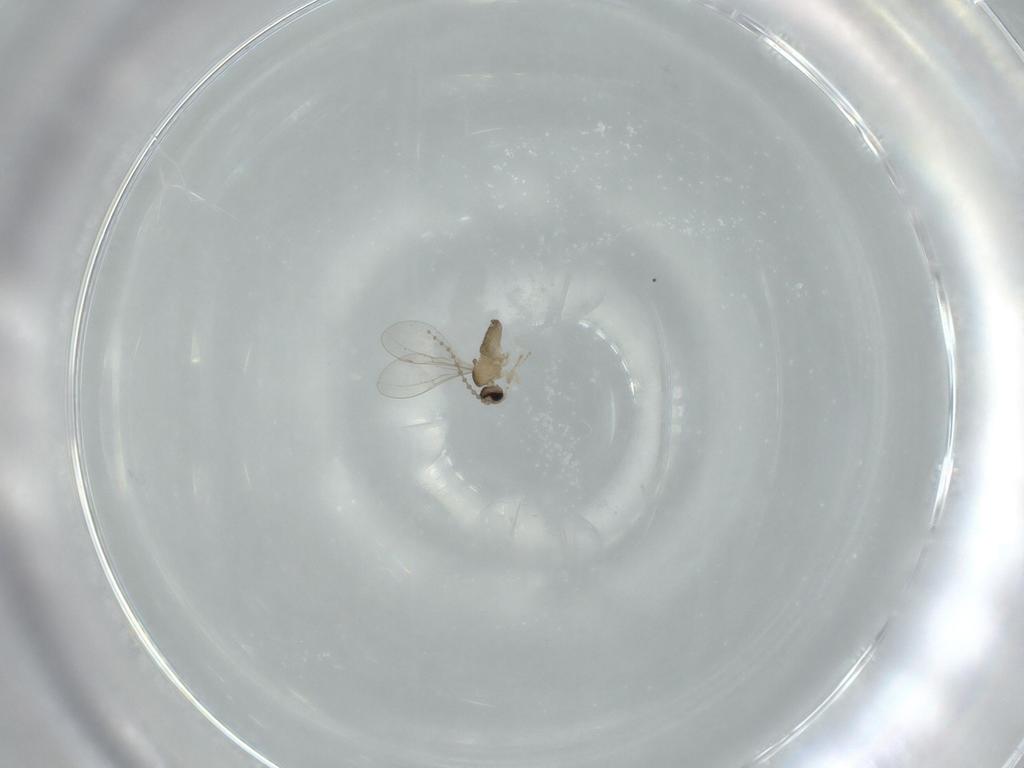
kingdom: Animalia
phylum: Arthropoda
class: Insecta
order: Diptera
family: Cecidomyiidae
